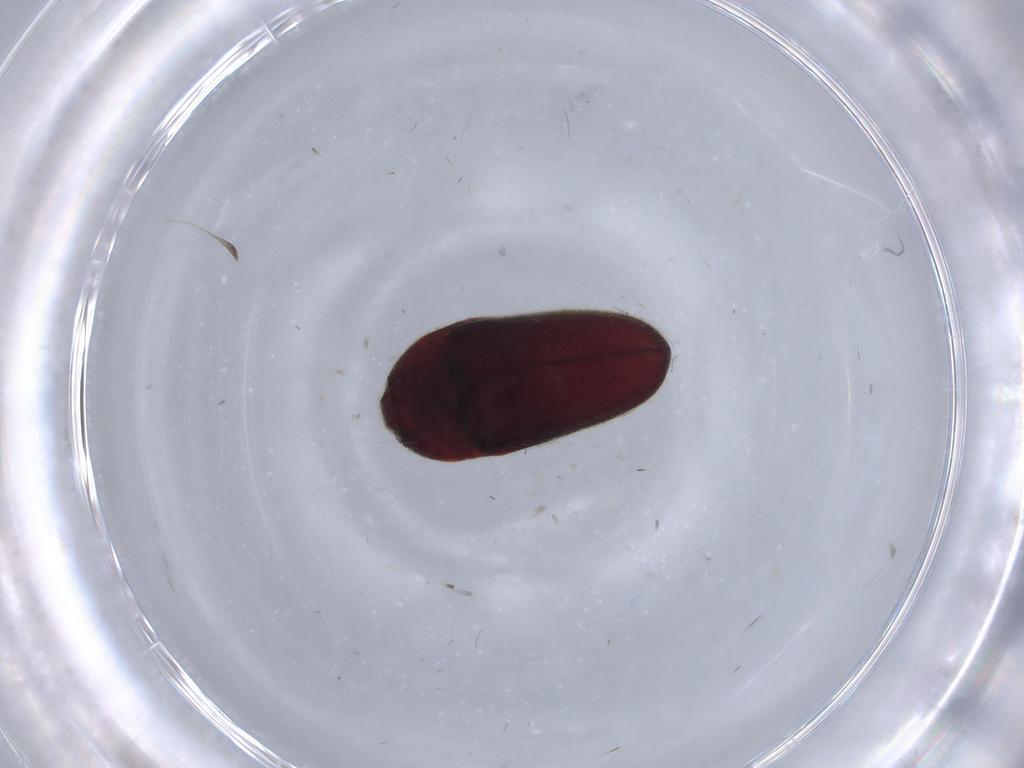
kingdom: Animalia
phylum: Arthropoda
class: Insecta
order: Coleoptera
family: Throscidae
